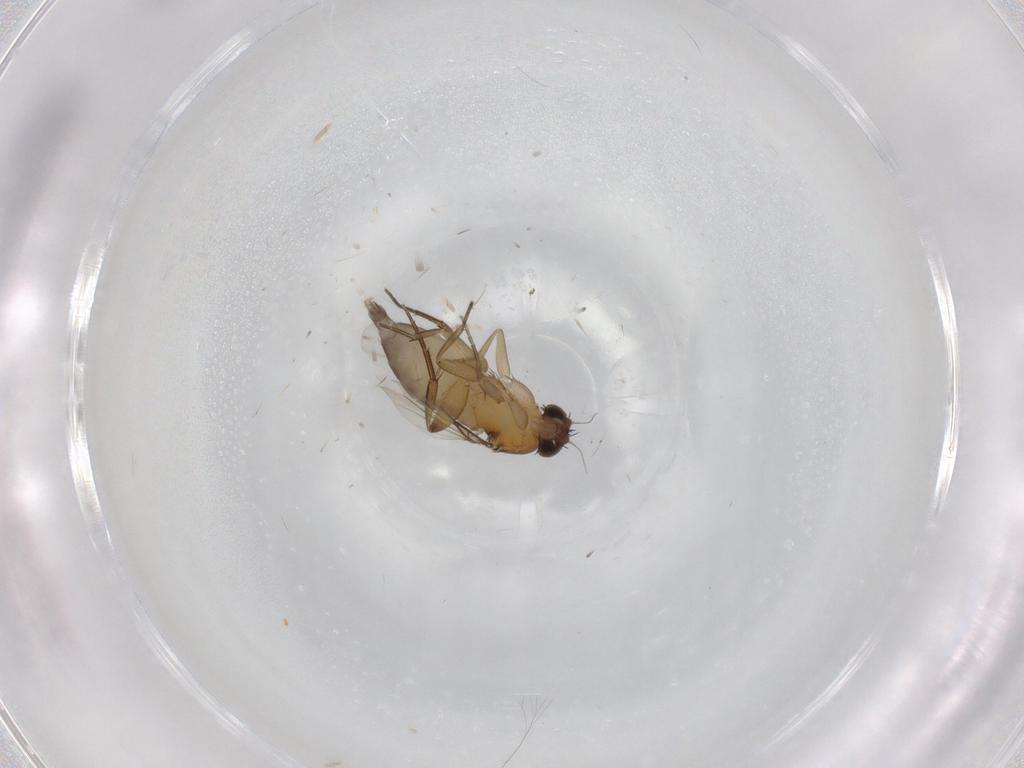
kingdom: Animalia
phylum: Arthropoda
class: Insecta
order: Diptera
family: Phoridae
